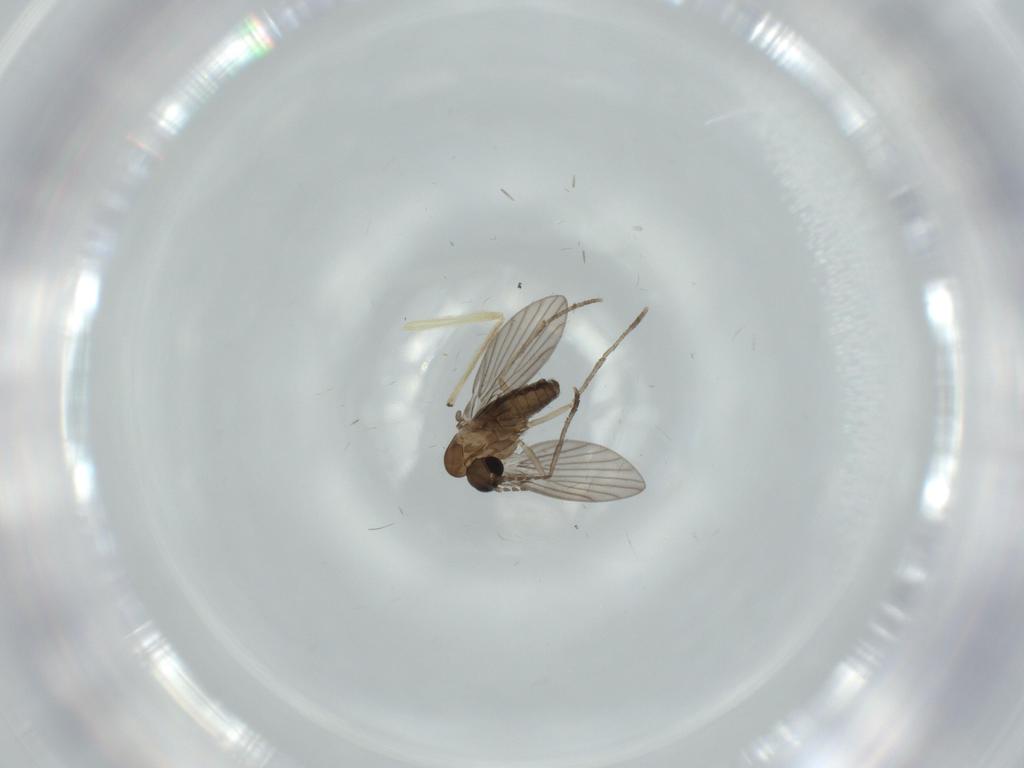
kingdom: Animalia
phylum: Arthropoda
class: Insecta
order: Diptera
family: Psychodidae
